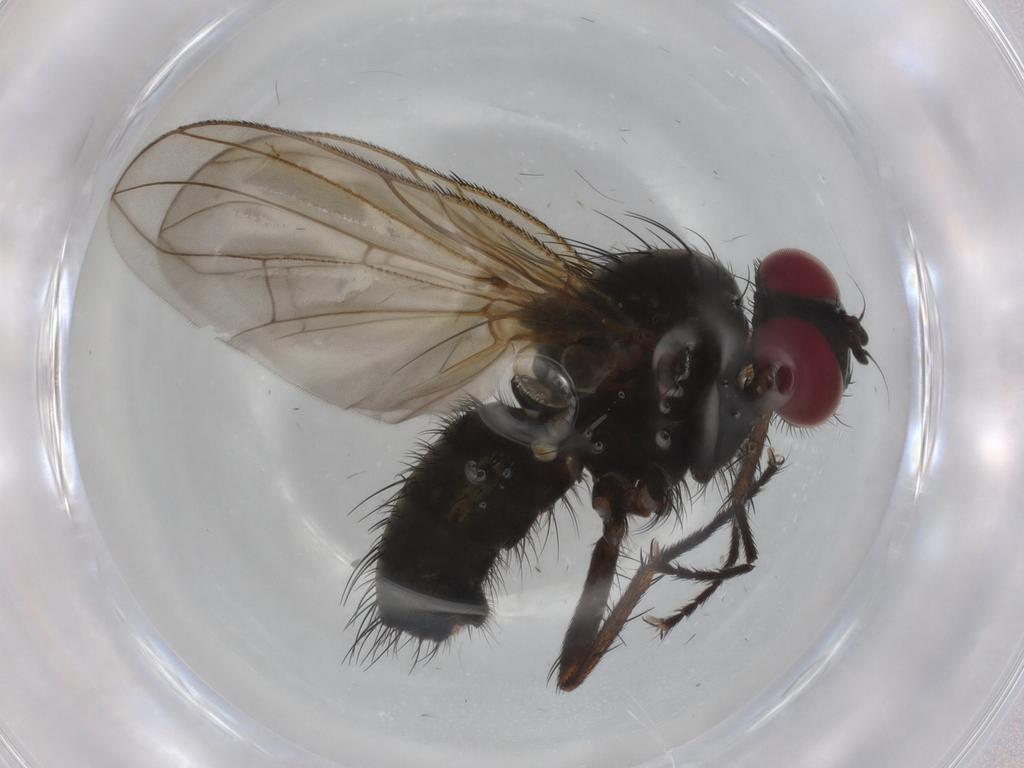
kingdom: Animalia
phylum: Arthropoda
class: Insecta
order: Diptera
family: Calliphoridae
